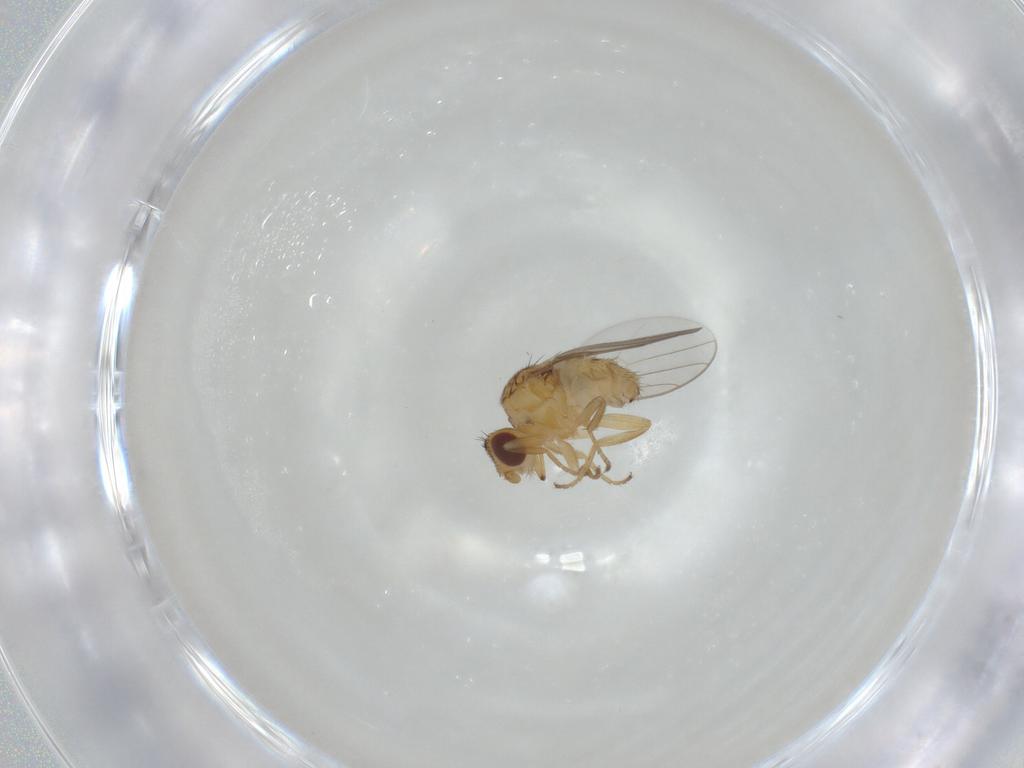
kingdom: Animalia
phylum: Arthropoda
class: Insecta
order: Diptera
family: Chloropidae
